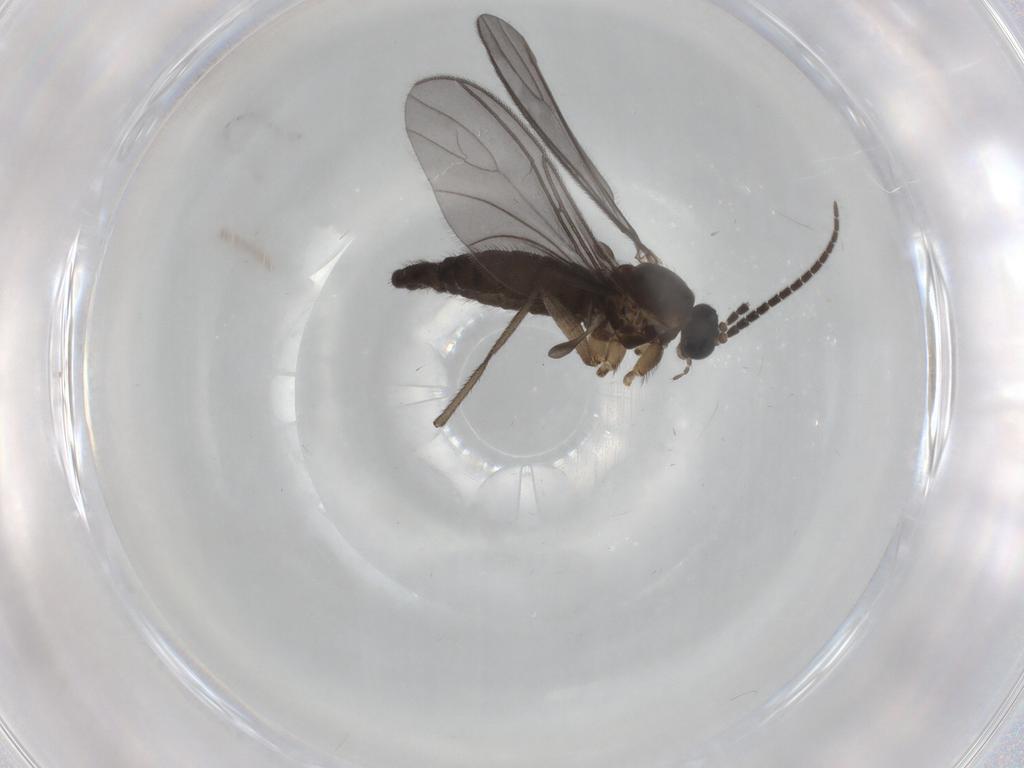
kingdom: Animalia
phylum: Arthropoda
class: Insecta
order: Diptera
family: Sciaridae
